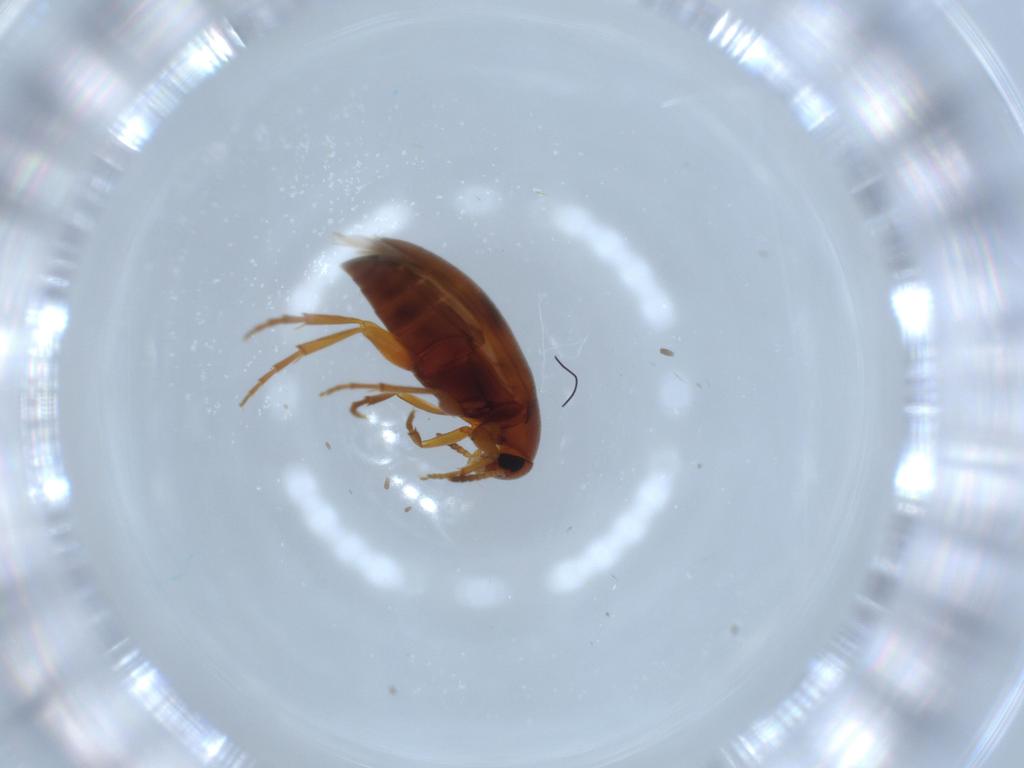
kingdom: Animalia
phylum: Arthropoda
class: Insecta
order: Coleoptera
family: Scraptiidae
